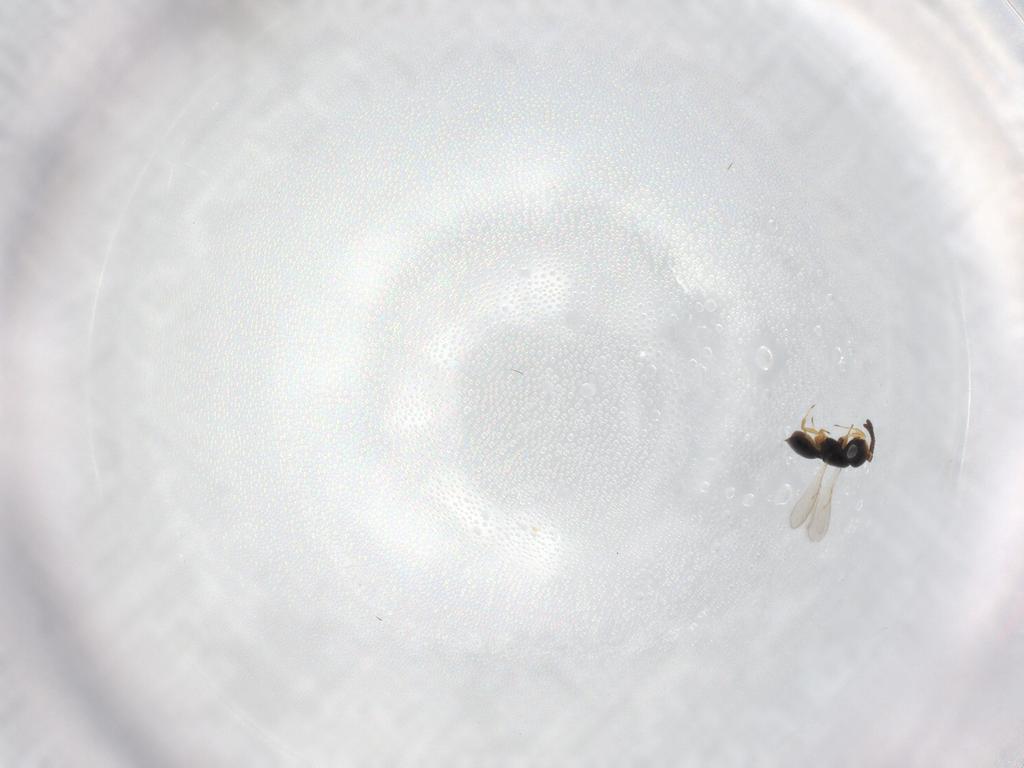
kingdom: Animalia
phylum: Arthropoda
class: Insecta
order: Hymenoptera
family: Scelionidae
